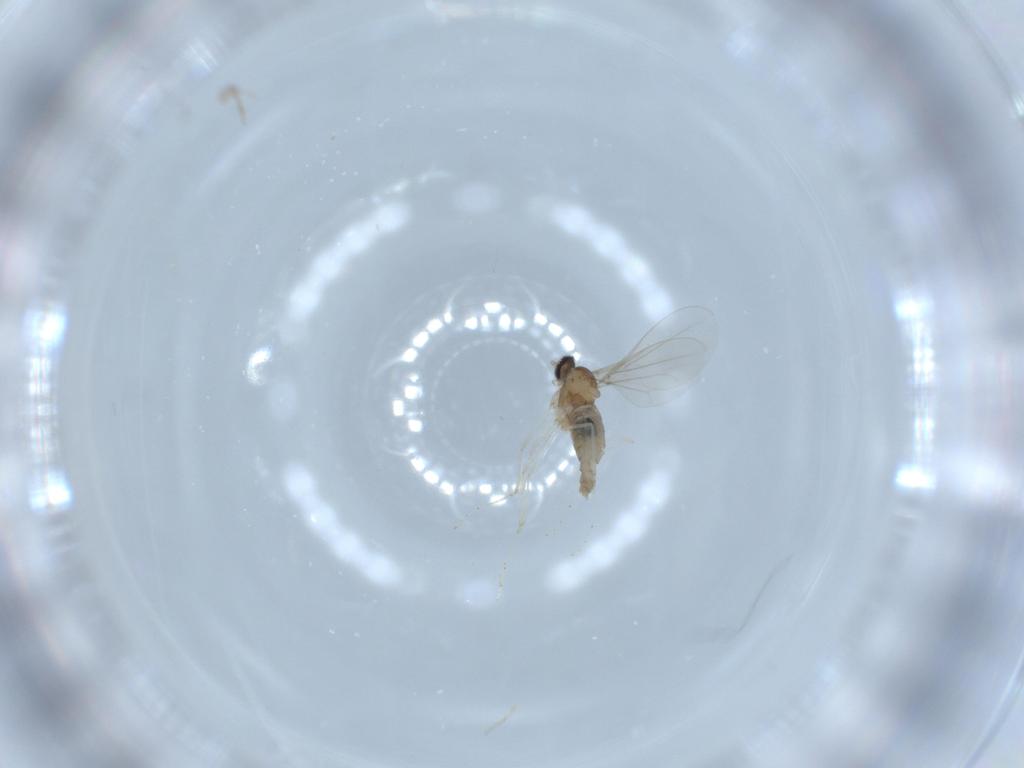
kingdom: Animalia
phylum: Arthropoda
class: Insecta
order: Diptera
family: Cecidomyiidae
